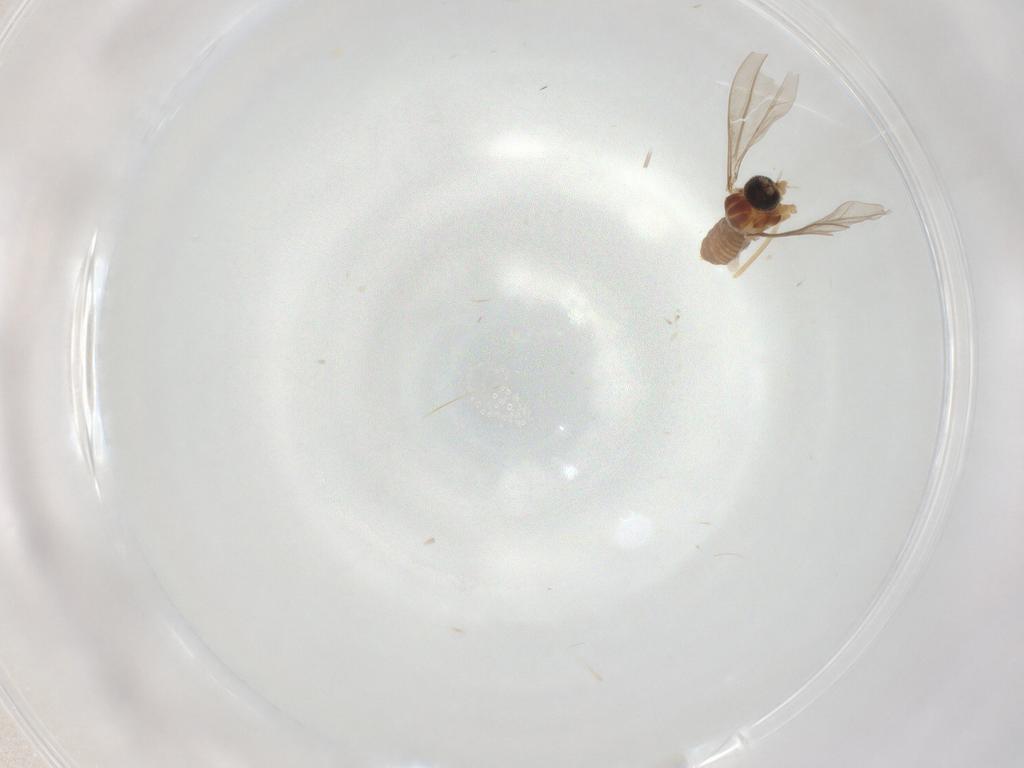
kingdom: Animalia
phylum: Arthropoda
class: Insecta
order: Diptera
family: Cecidomyiidae
